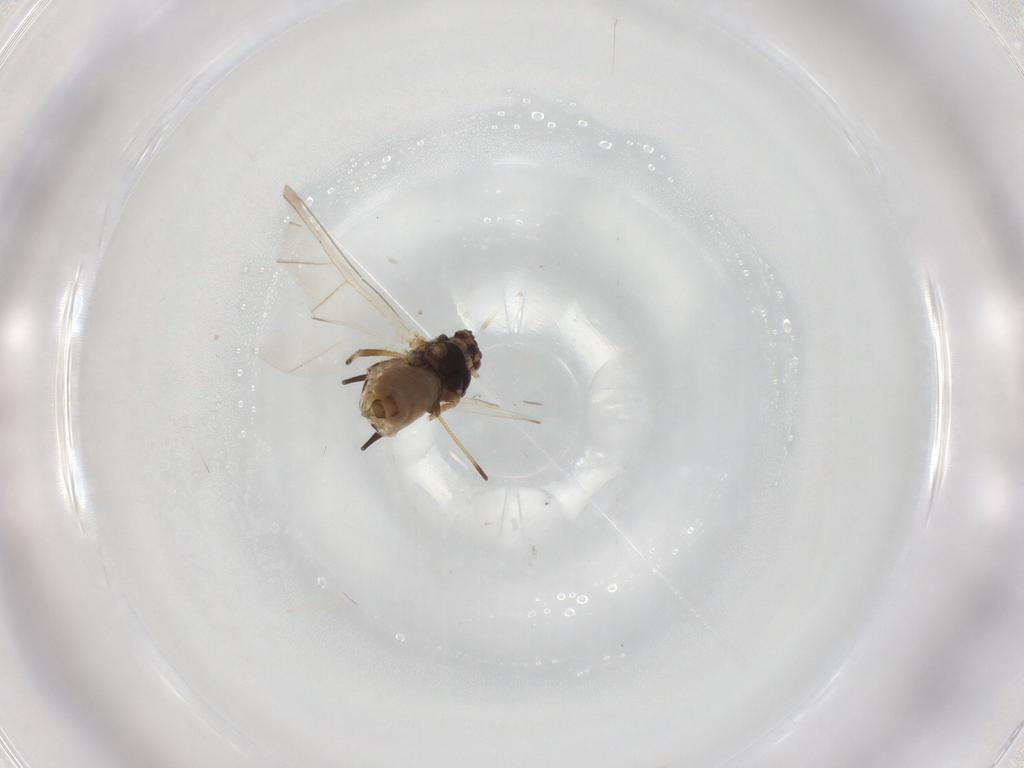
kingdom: Animalia
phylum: Arthropoda
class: Insecta
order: Hemiptera
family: Aphididae
